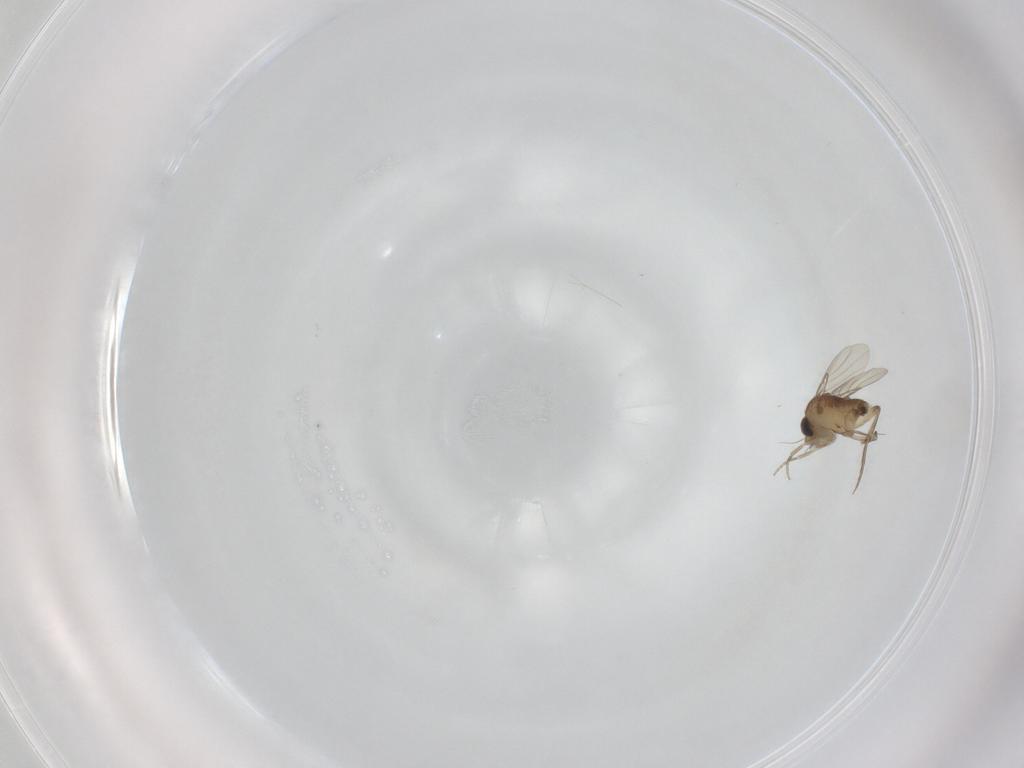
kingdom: Animalia
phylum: Arthropoda
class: Insecta
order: Diptera
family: Phoridae
